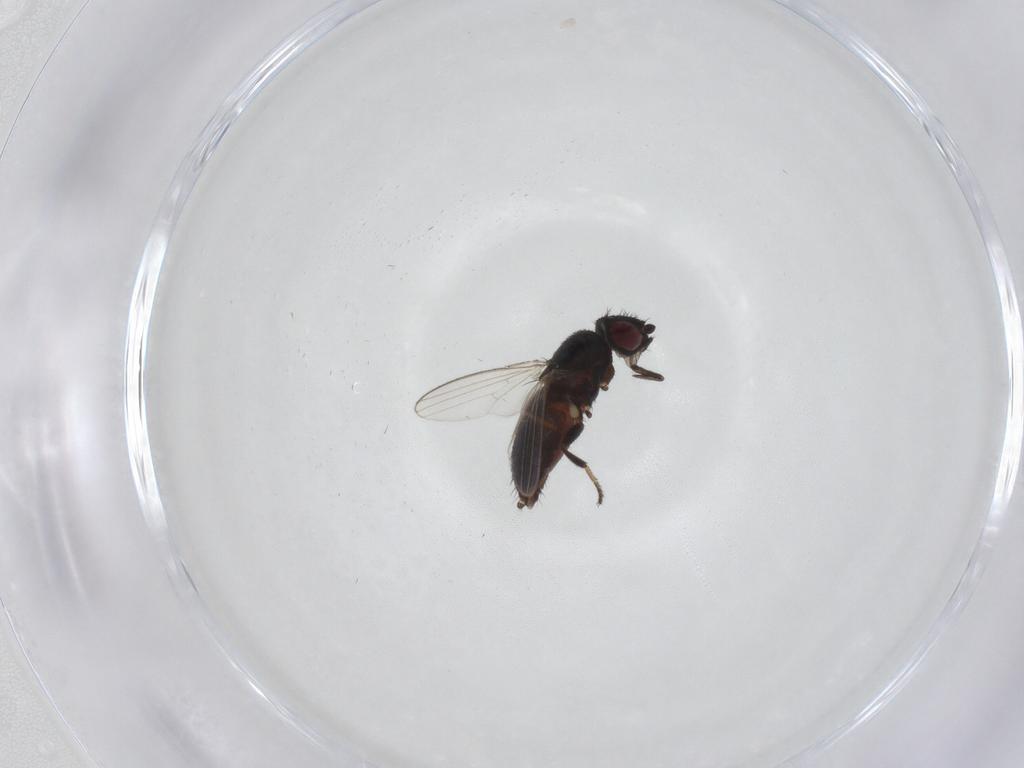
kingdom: Animalia
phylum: Arthropoda
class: Insecta
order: Diptera
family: Milichiidae
